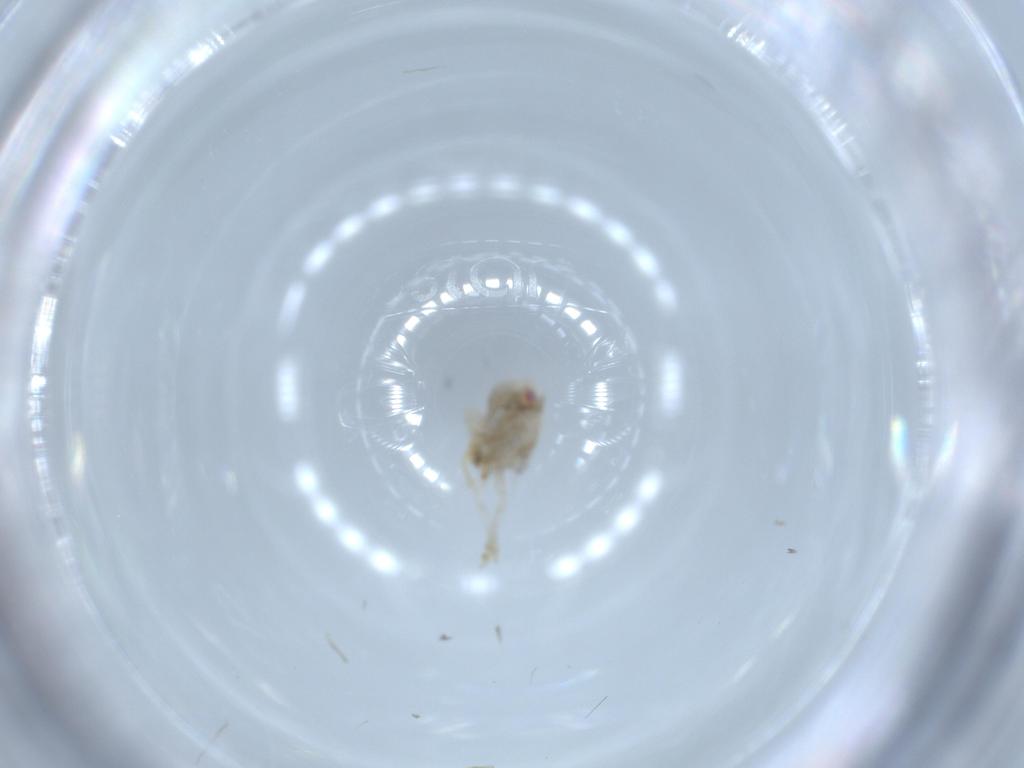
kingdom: Animalia
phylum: Arthropoda
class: Insecta
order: Hemiptera
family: Acanaloniidae
